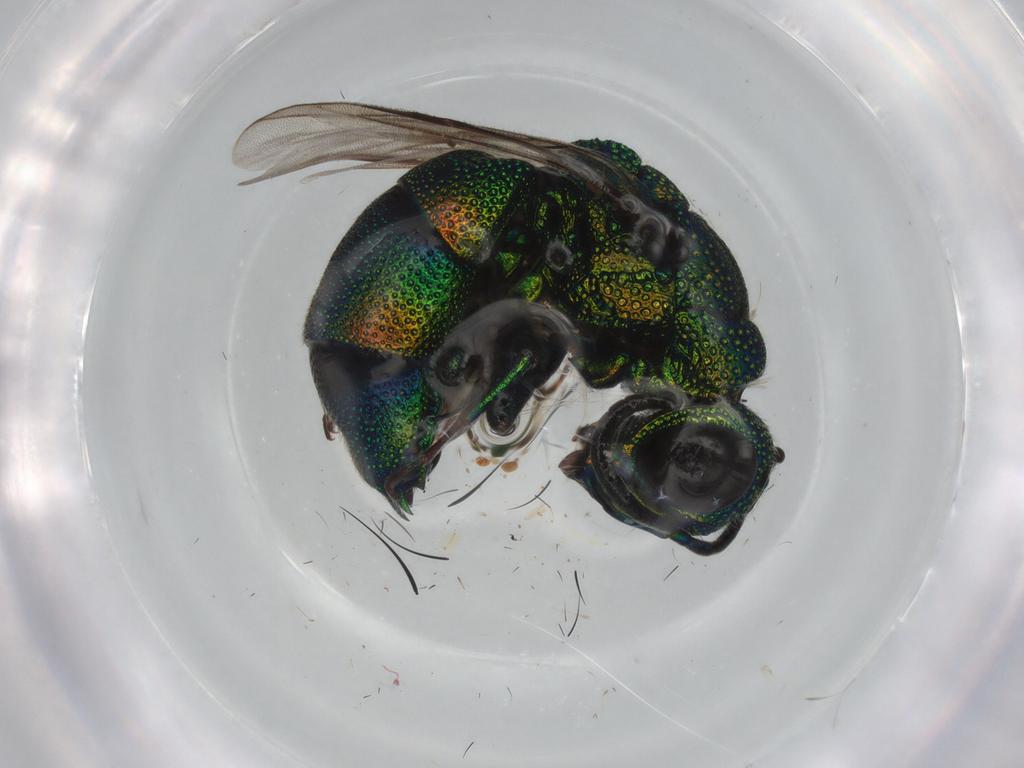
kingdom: Animalia
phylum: Arthropoda
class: Insecta
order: Hymenoptera
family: Chrysididae
